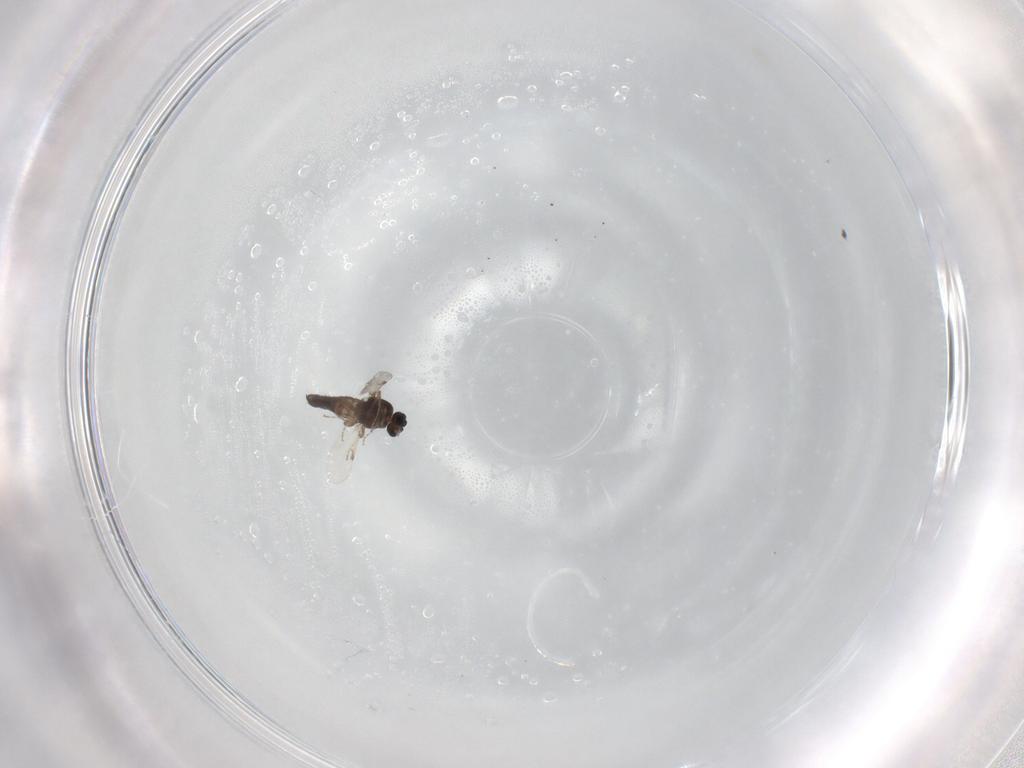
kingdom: Animalia
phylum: Arthropoda
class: Insecta
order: Diptera
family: Ceratopogonidae
